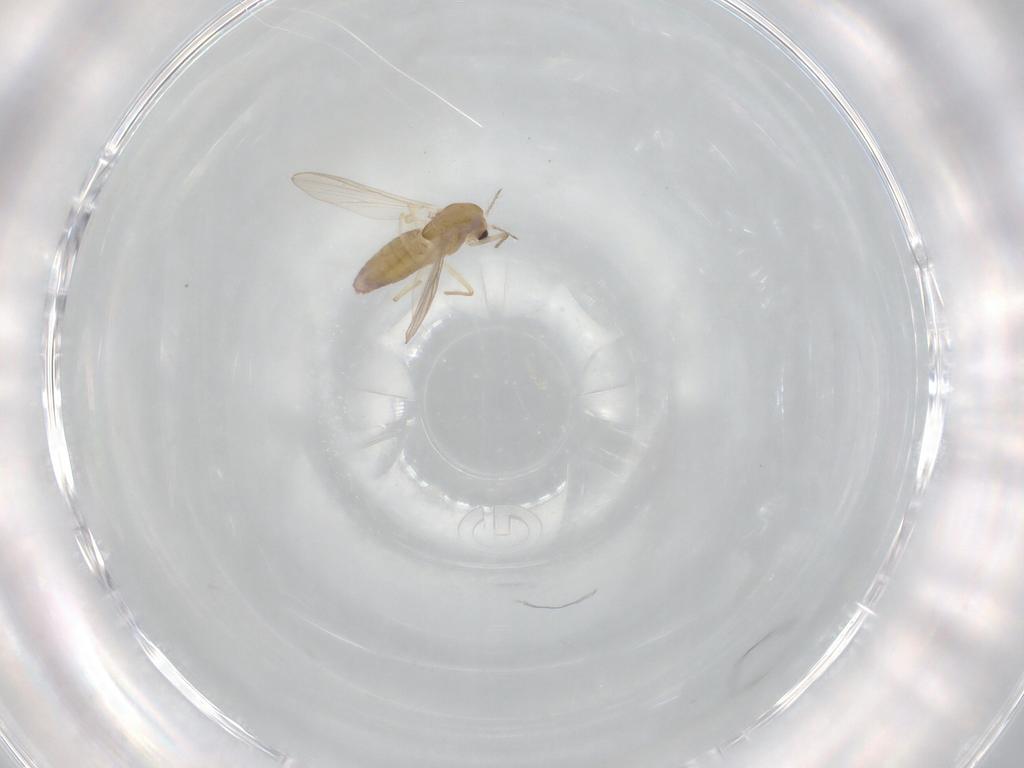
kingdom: Animalia
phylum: Arthropoda
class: Insecta
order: Diptera
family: Chironomidae
